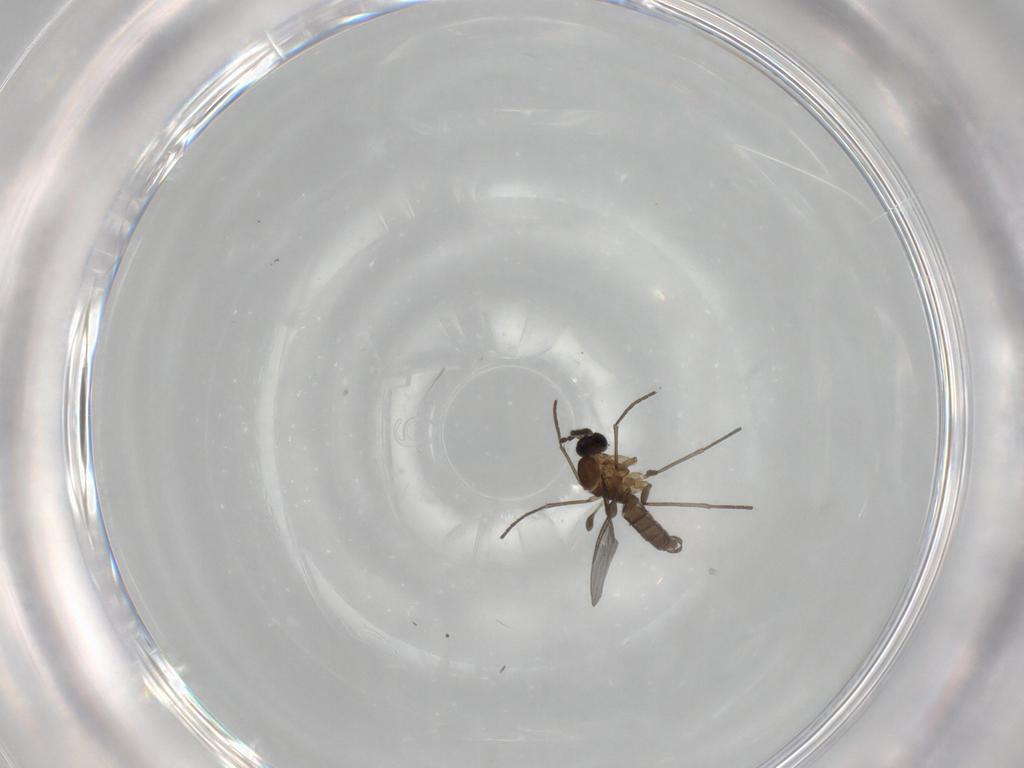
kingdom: Animalia
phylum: Arthropoda
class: Insecta
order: Diptera
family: Sciaridae
